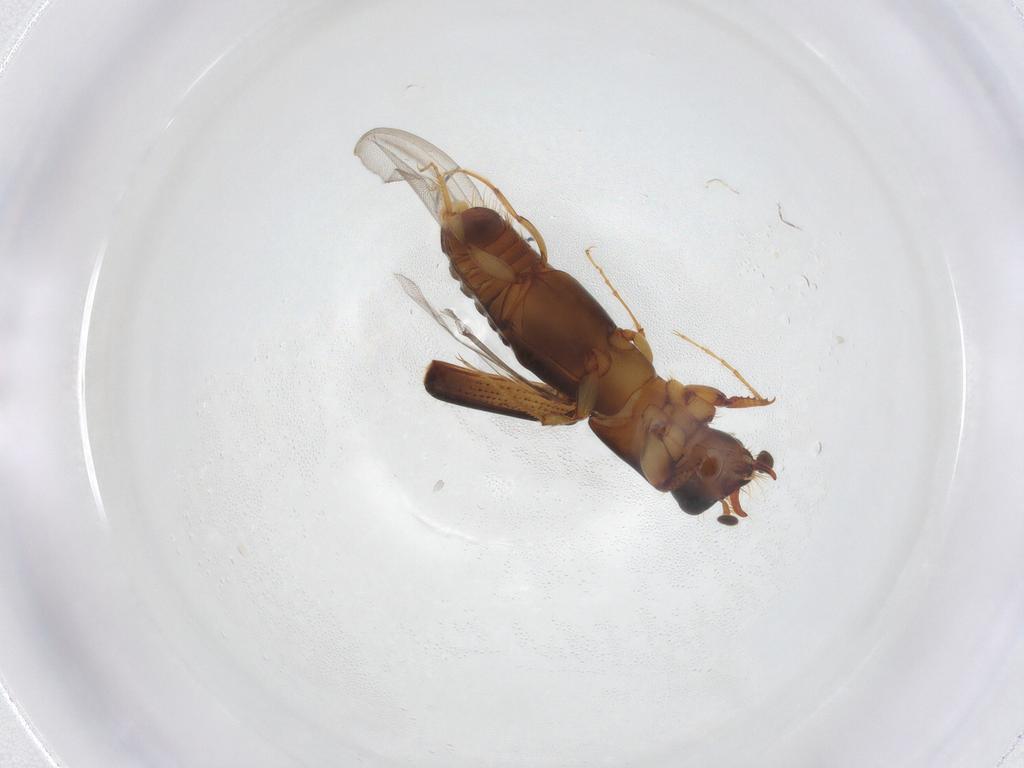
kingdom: Animalia
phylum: Arthropoda
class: Insecta
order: Coleoptera
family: Curculionidae
